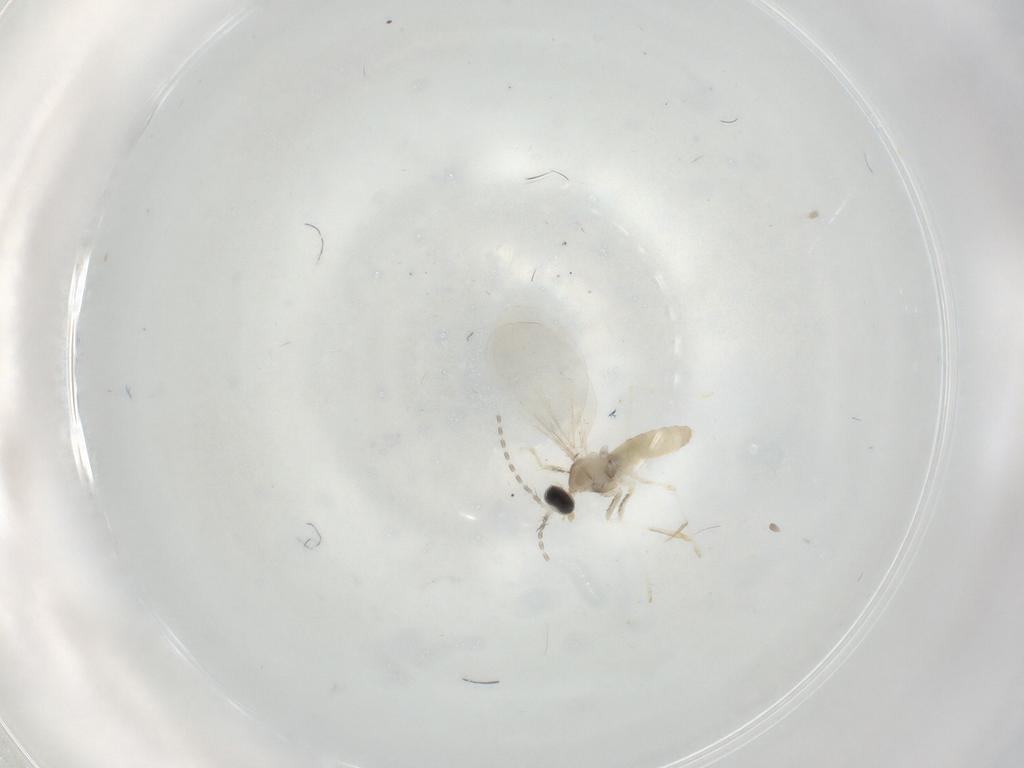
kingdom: Animalia
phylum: Arthropoda
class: Insecta
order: Diptera
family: Cecidomyiidae
